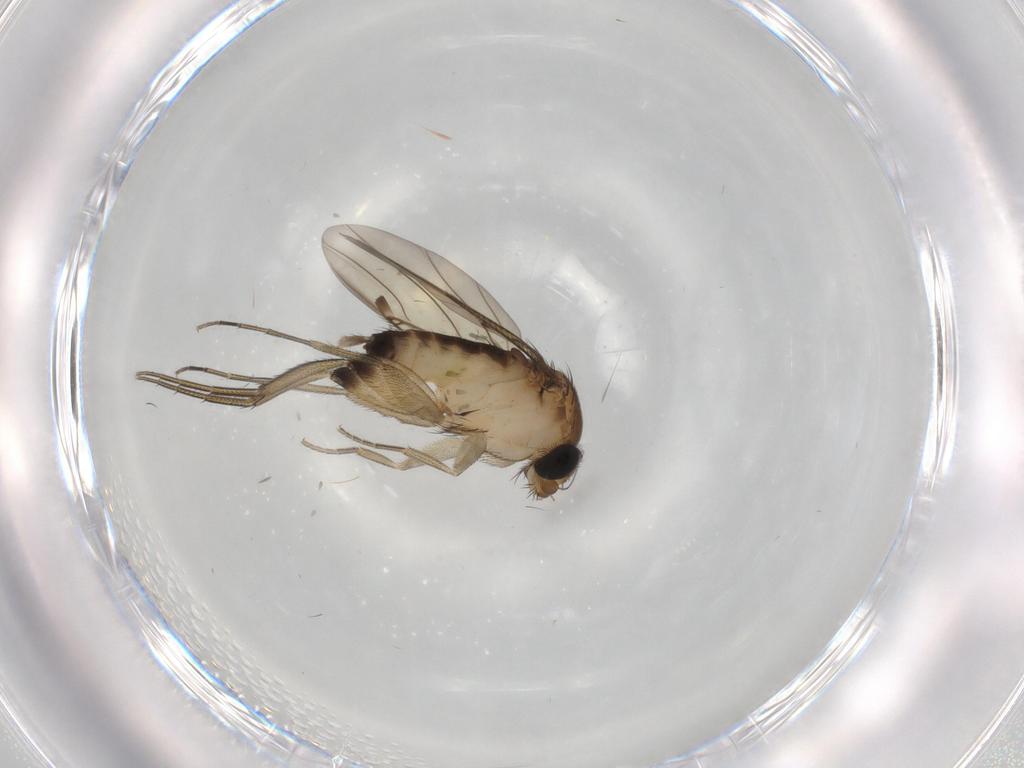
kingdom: Animalia
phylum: Arthropoda
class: Insecta
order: Diptera
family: Phoridae
